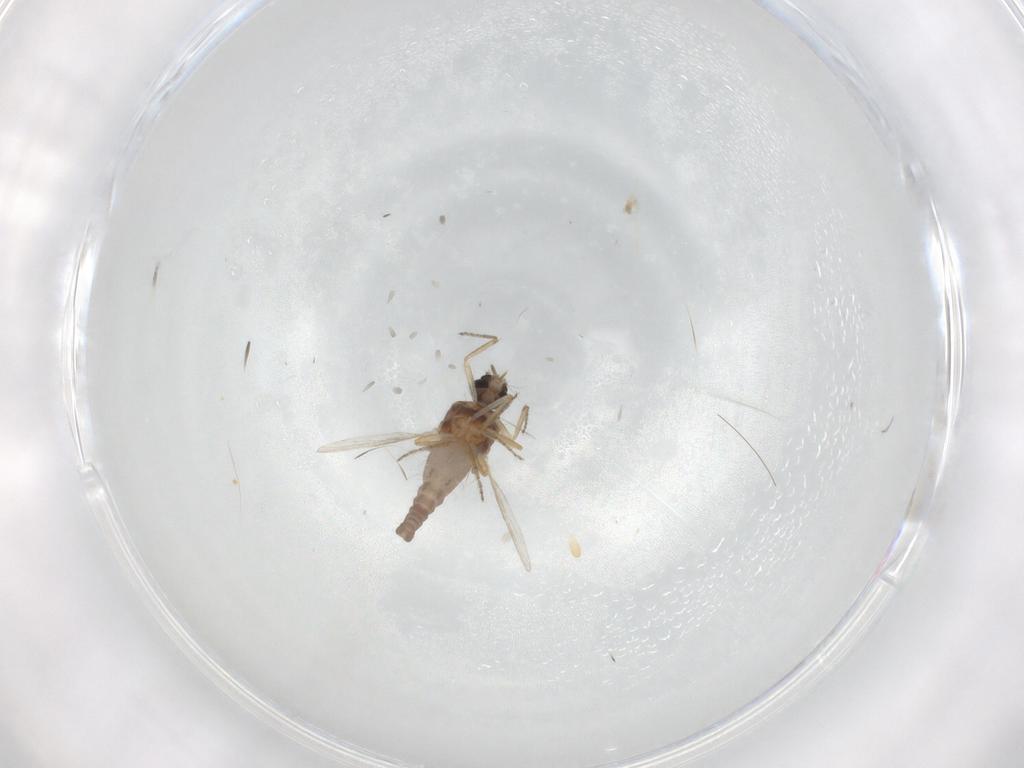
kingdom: Animalia
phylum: Arthropoda
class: Insecta
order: Diptera
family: Ceratopogonidae
